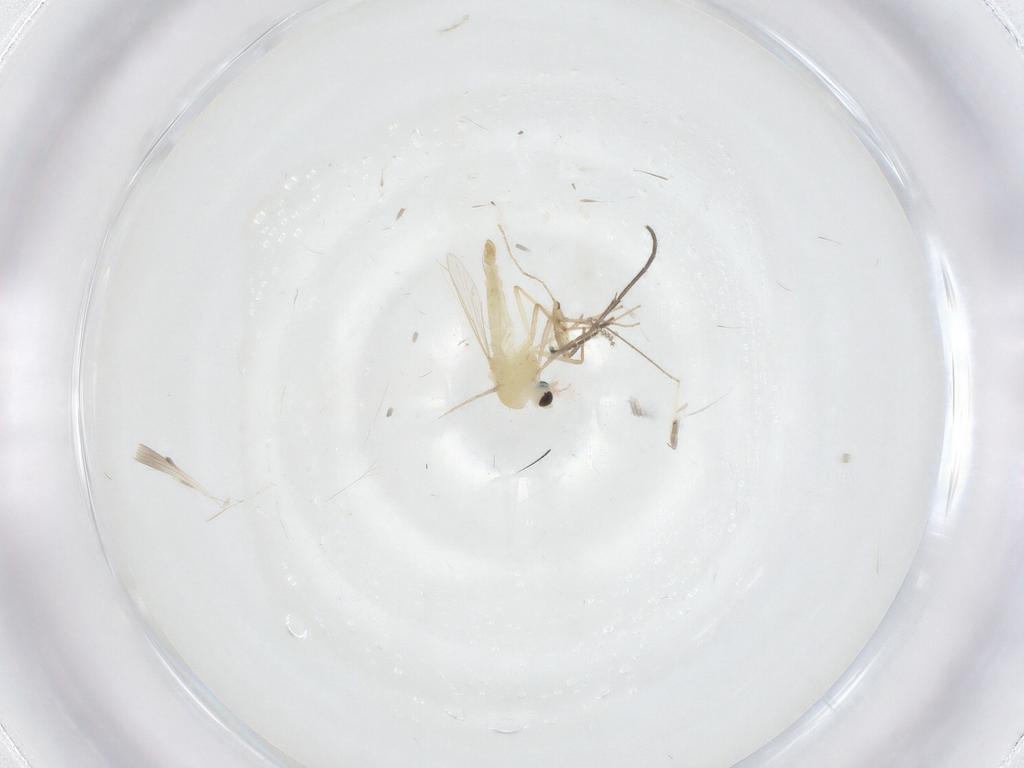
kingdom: Animalia
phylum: Arthropoda
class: Insecta
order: Diptera
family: Chironomidae
